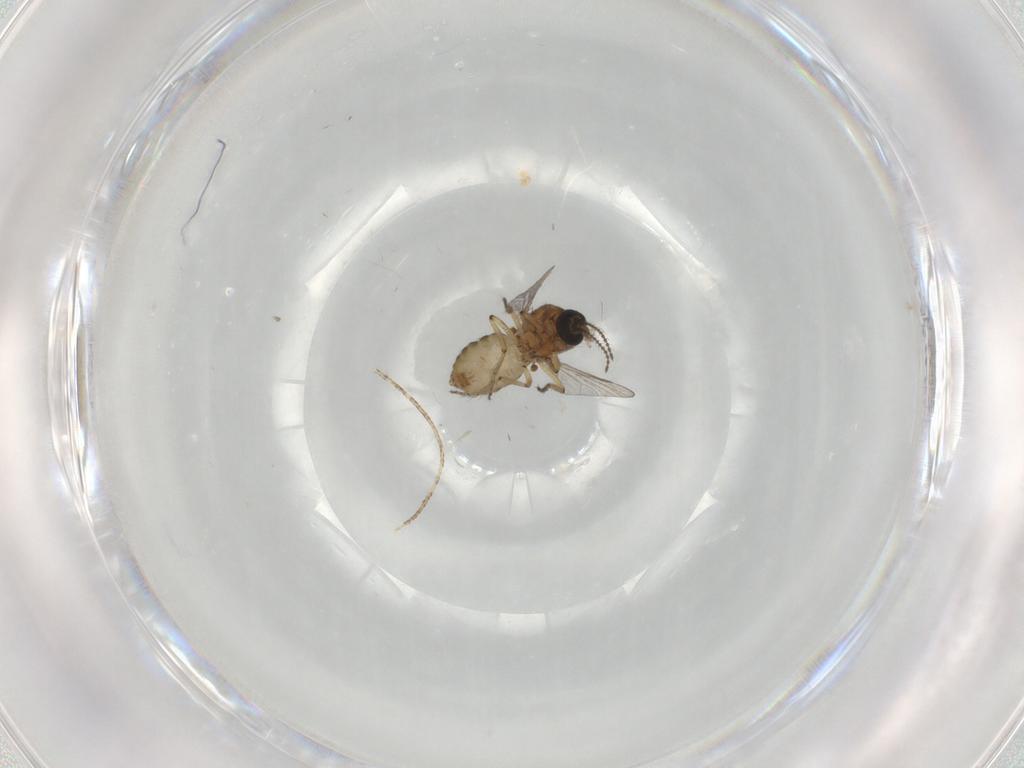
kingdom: Animalia
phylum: Arthropoda
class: Insecta
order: Diptera
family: Ceratopogonidae
